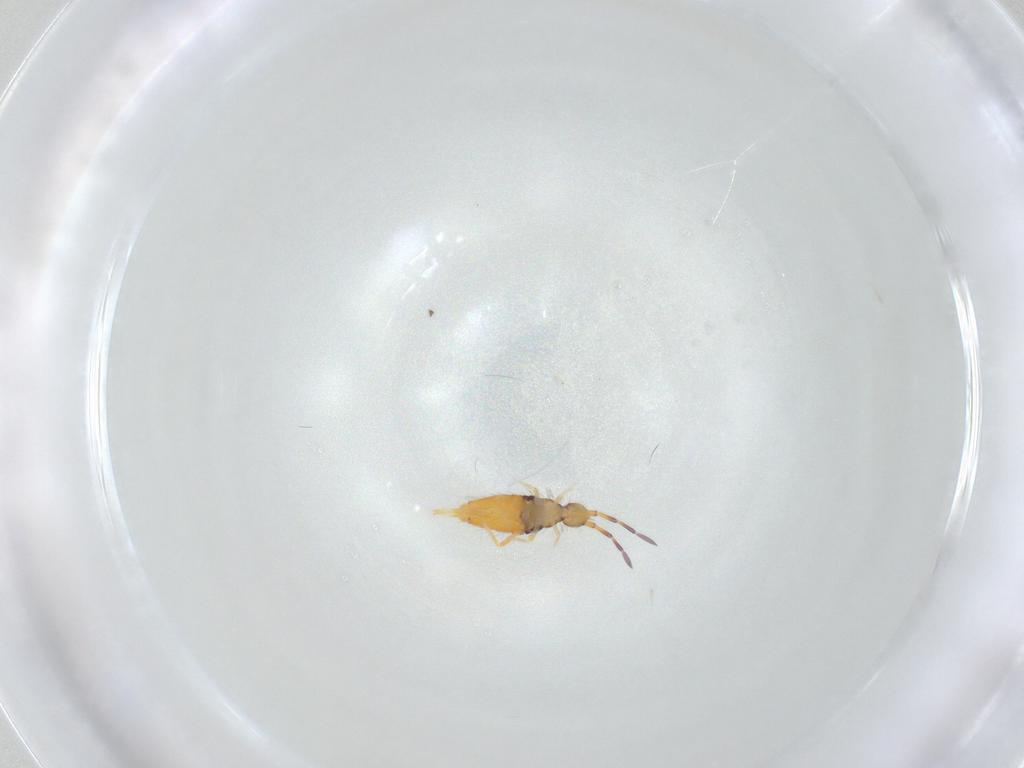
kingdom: Animalia
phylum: Arthropoda
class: Collembola
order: Entomobryomorpha
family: Entomobryidae
